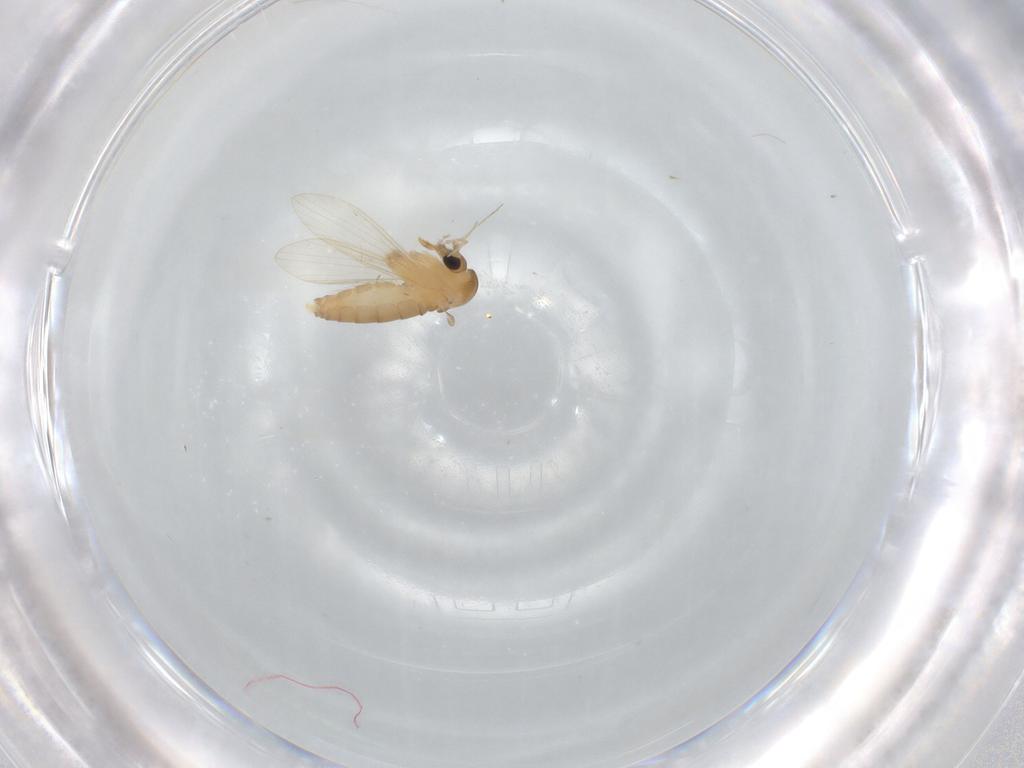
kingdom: Animalia
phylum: Arthropoda
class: Insecta
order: Diptera
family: Psychodidae
